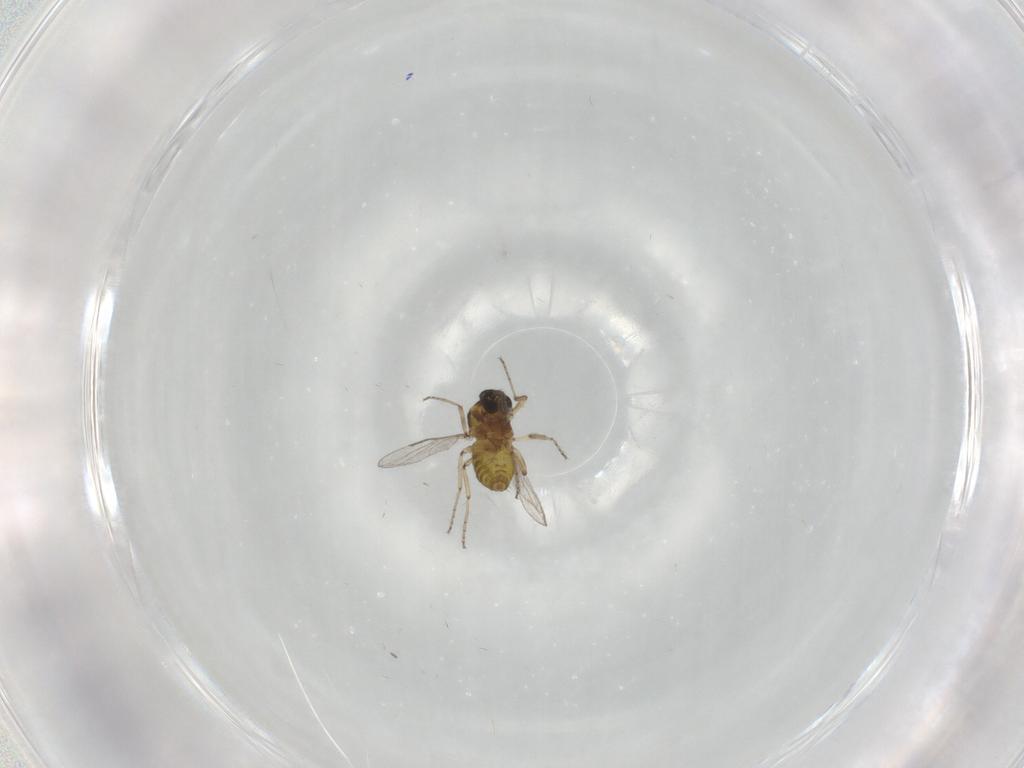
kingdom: Animalia
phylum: Arthropoda
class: Insecta
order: Diptera
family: Ceratopogonidae
